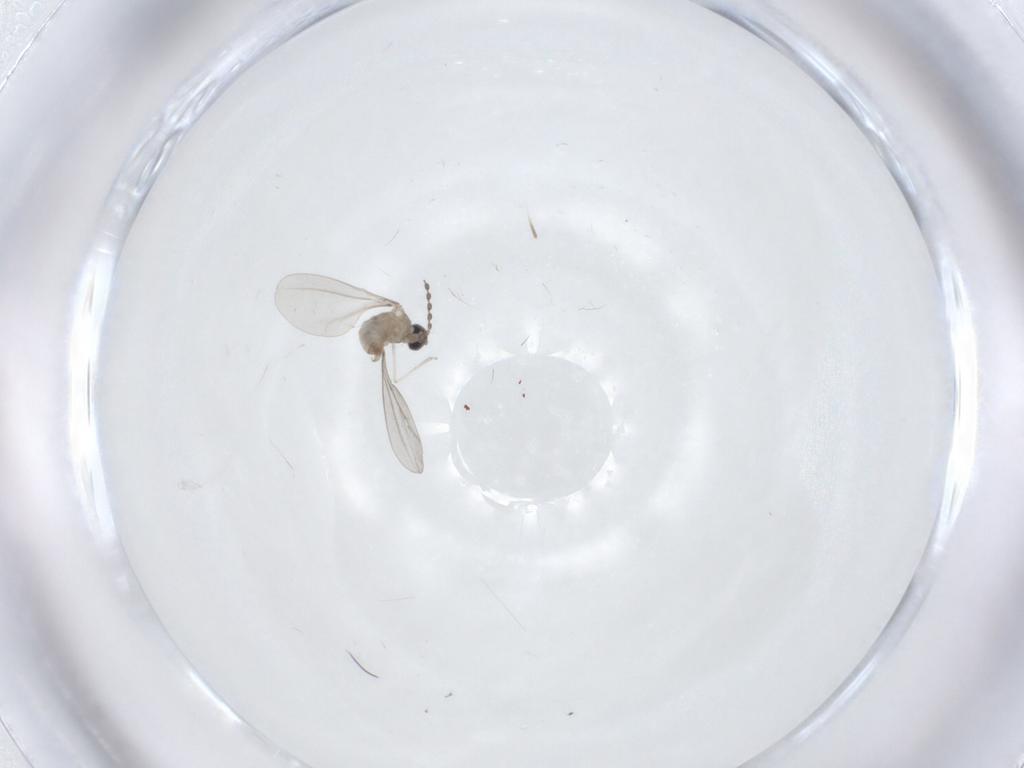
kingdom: Animalia
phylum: Arthropoda
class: Insecta
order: Diptera
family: Cecidomyiidae
